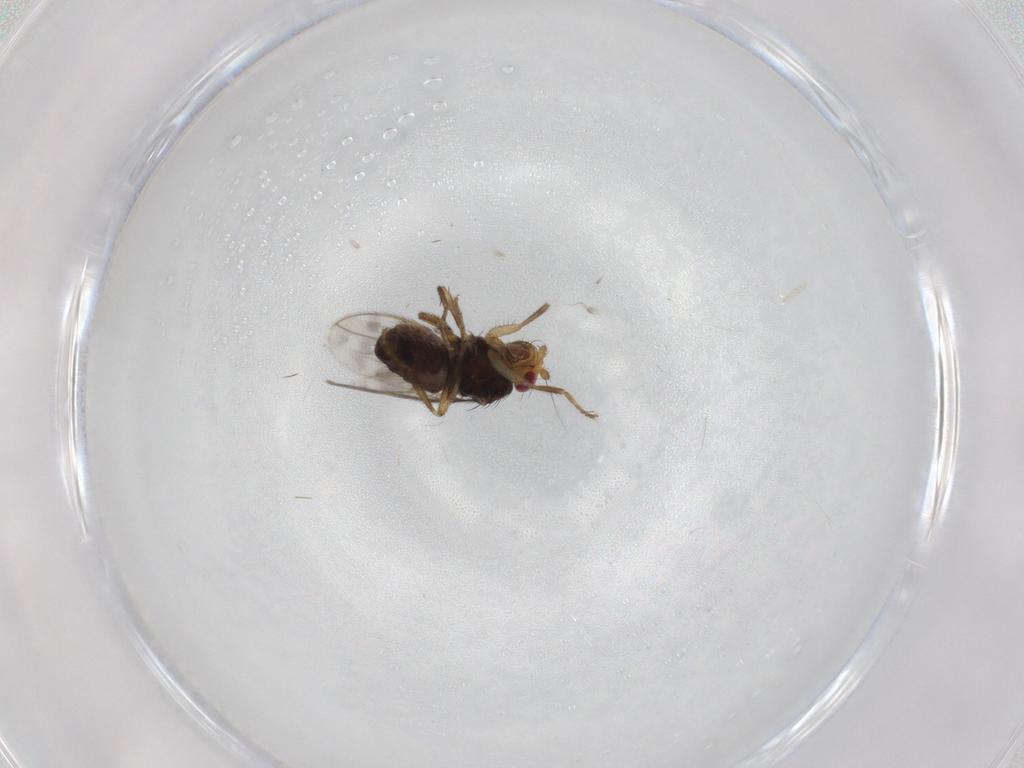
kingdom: Animalia
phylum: Arthropoda
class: Insecta
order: Diptera
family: Sphaeroceridae
